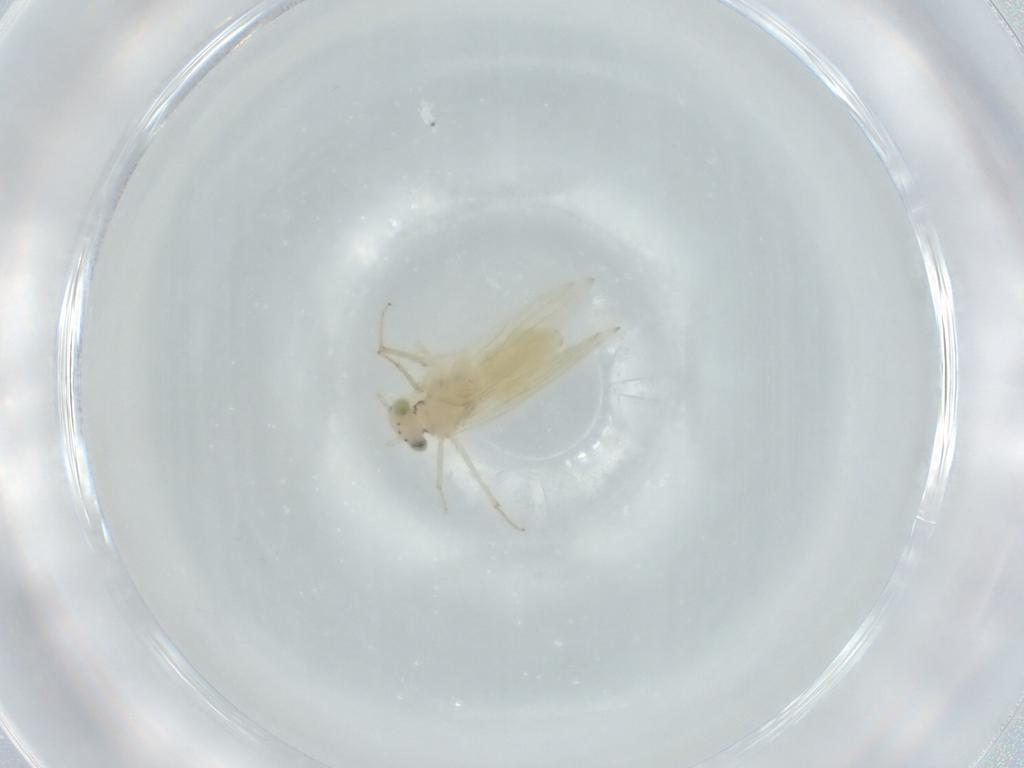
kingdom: Animalia
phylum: Arthropoda
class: Insecta
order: Psocodea
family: Lepidopsocidae
